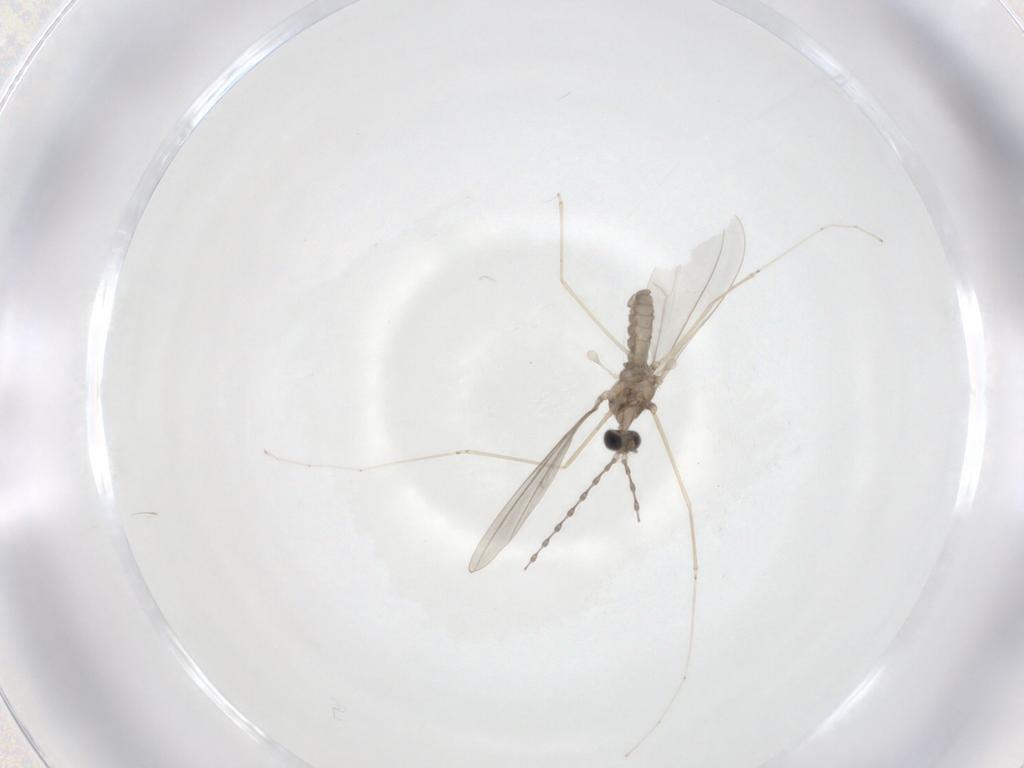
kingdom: Animalia
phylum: Arthropoda
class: Insecta
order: Diptera
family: Cecidomyiidae
